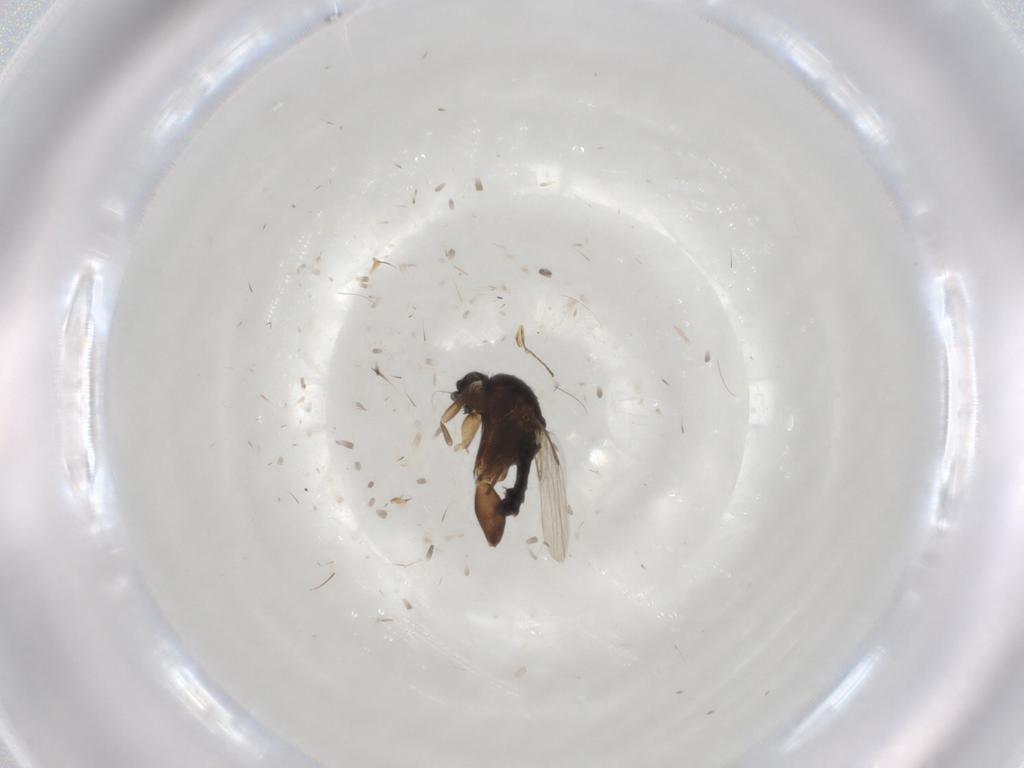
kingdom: Animalia
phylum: Arthropoda
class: Insecta
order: Diptera
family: Phoridae
